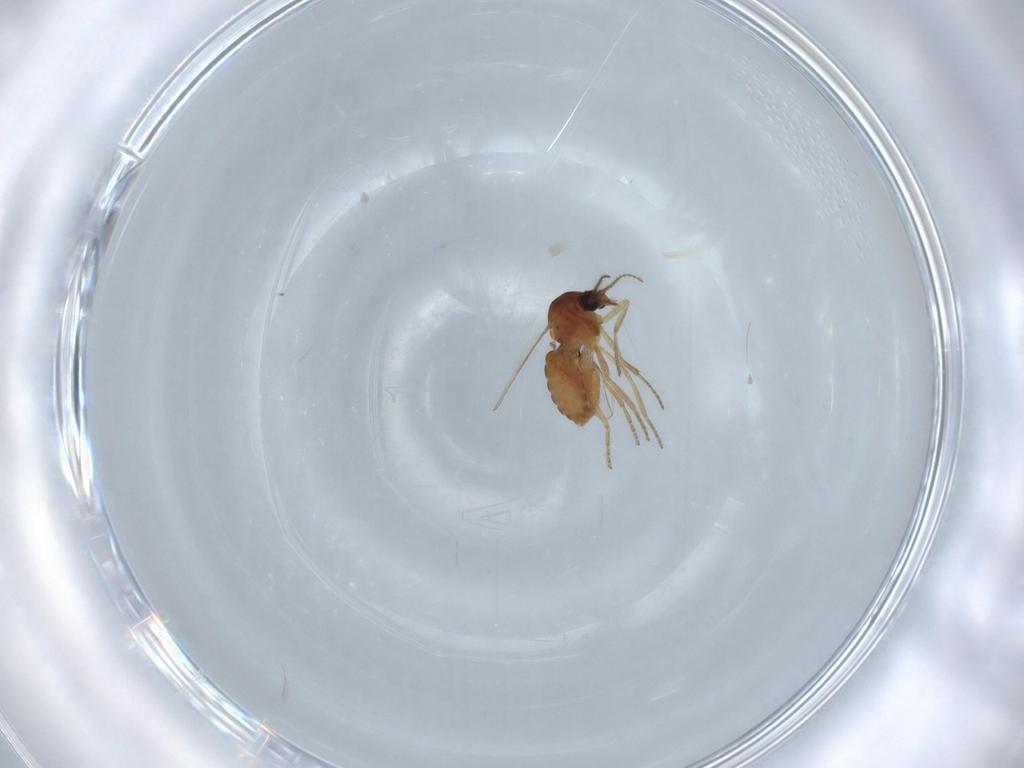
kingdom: Animalia
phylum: Arthropoda
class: Insecta
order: Diptera
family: Ceratopogonidae
